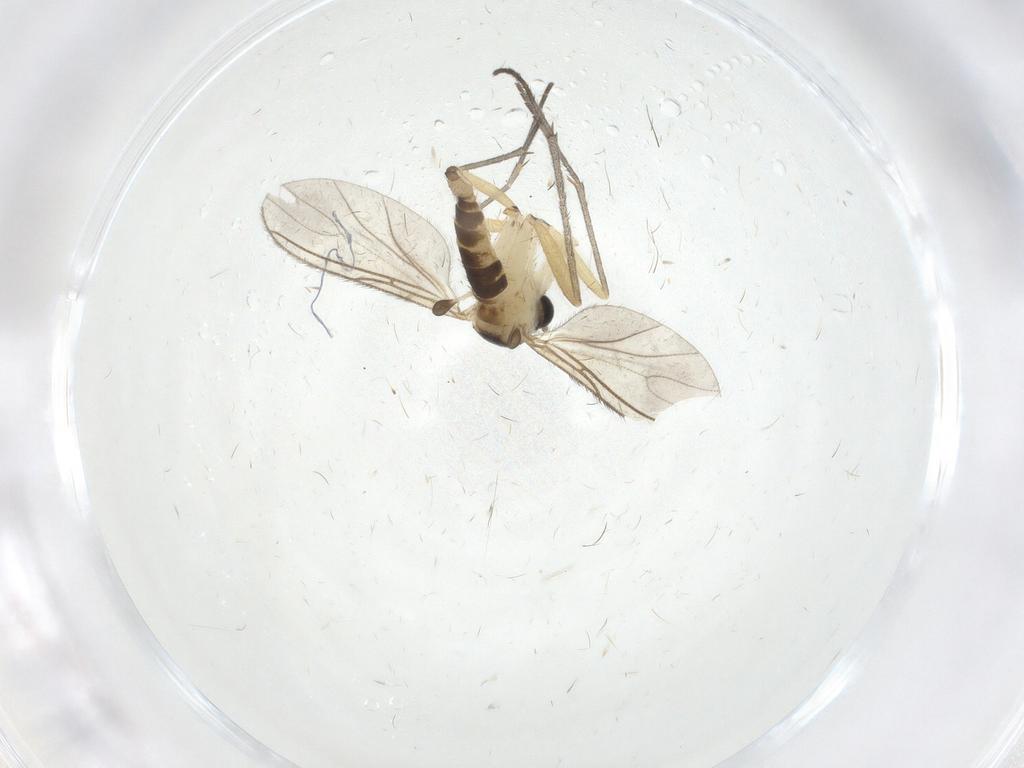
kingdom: Animalia
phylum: Arthropoda
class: Insecta
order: Diptera
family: Sciaridae
